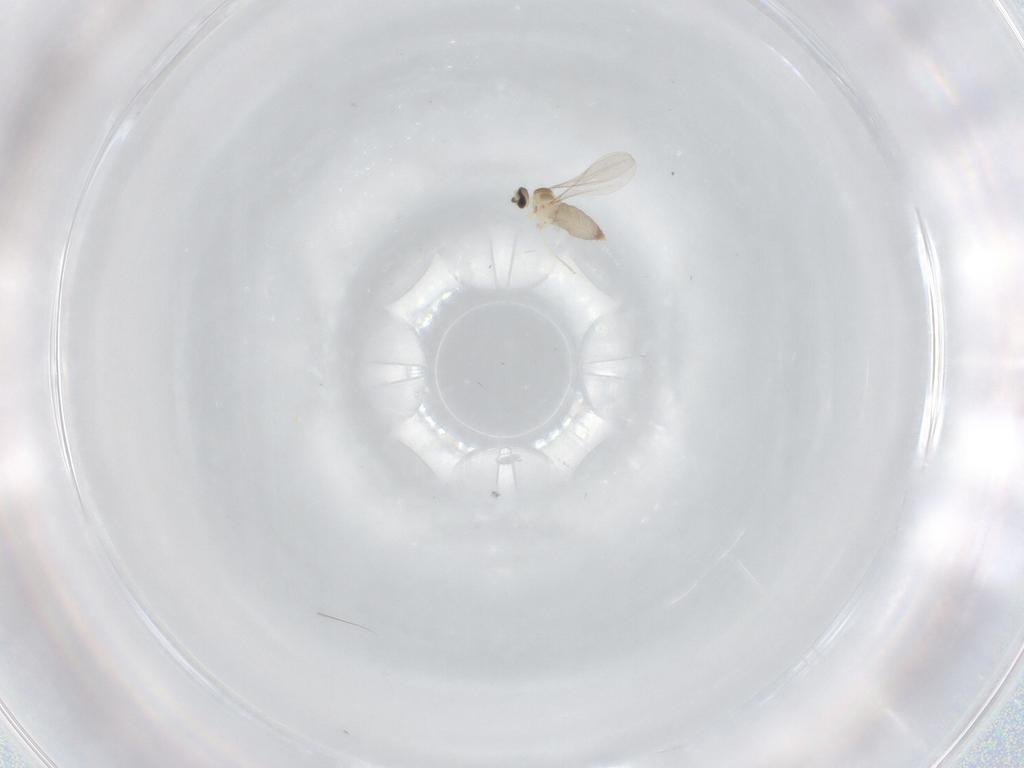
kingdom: Animalia
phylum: Arthropoda
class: Insecta
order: Diptera
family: Cecidomyiidae
